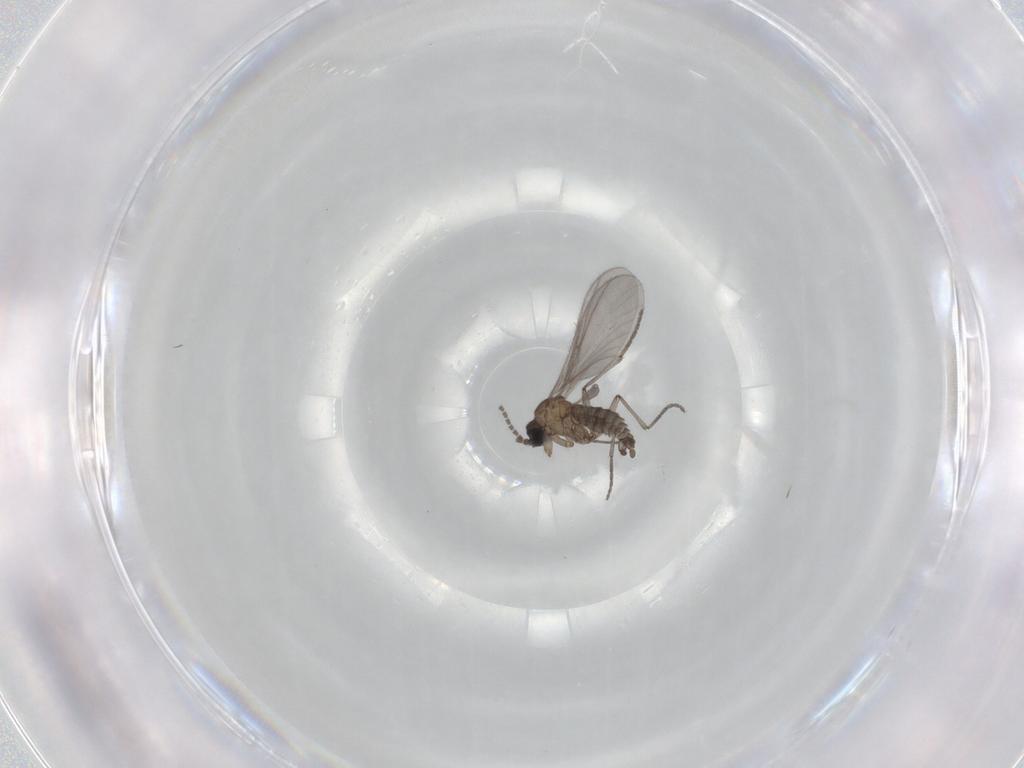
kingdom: Animalia
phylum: Arthropoda
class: Insecta
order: Diptera
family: Sciaridae
